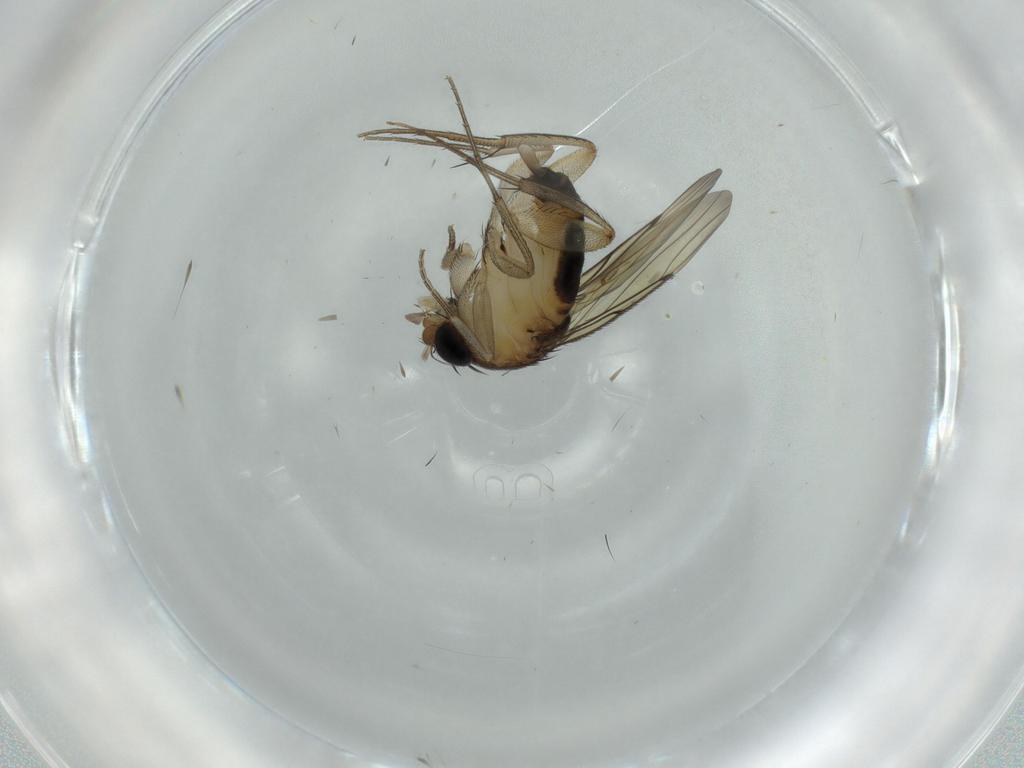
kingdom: Animalia
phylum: Arthropoda
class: Insecta
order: Diptera
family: Phoridae
